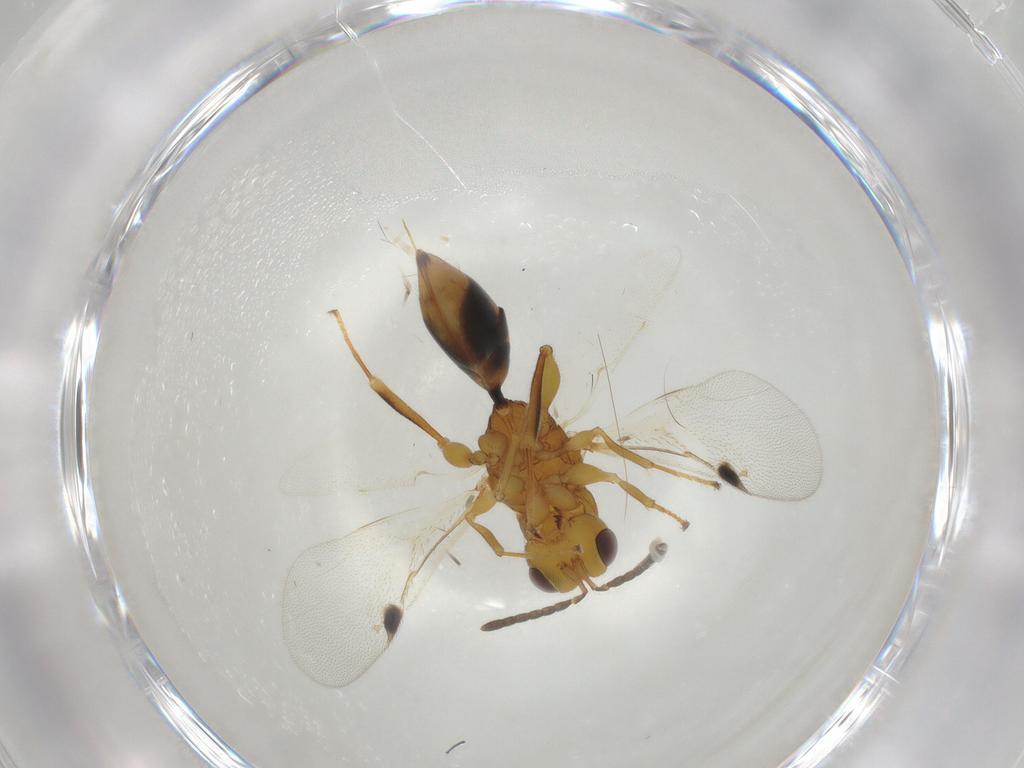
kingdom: Animalia
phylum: Arthropoda
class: Insecta
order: Hymenoptera
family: Eurytomidae
